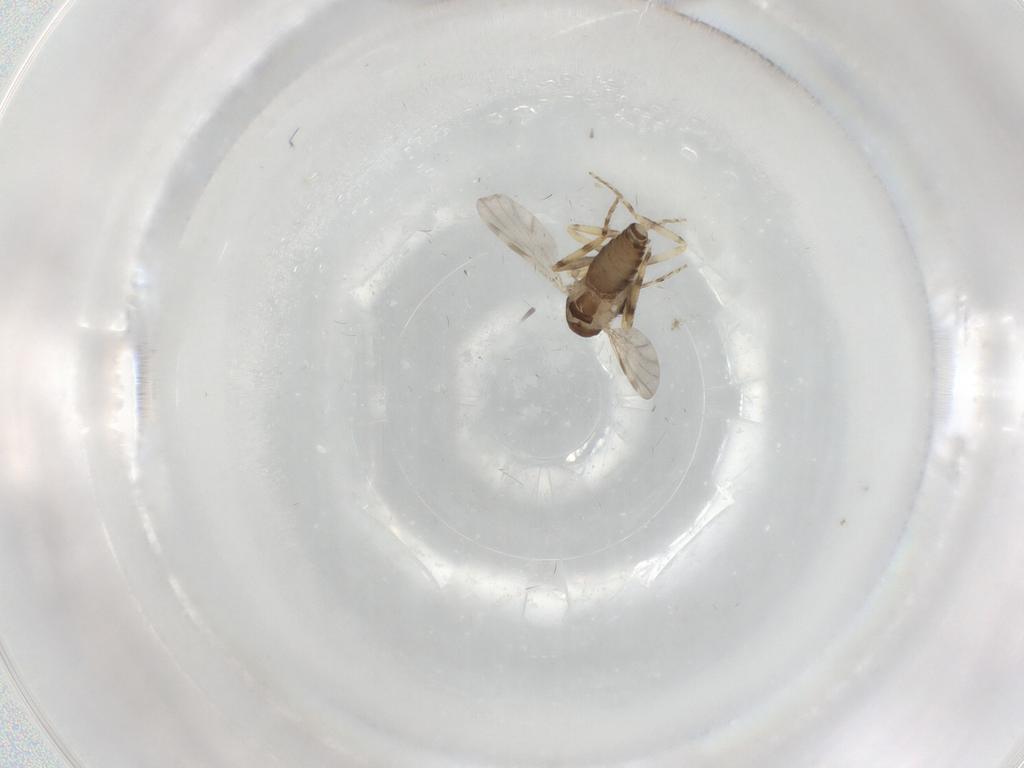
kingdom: Animalia
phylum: Arthropoda
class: Insecta
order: Diptera
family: Ceratopogonidae
